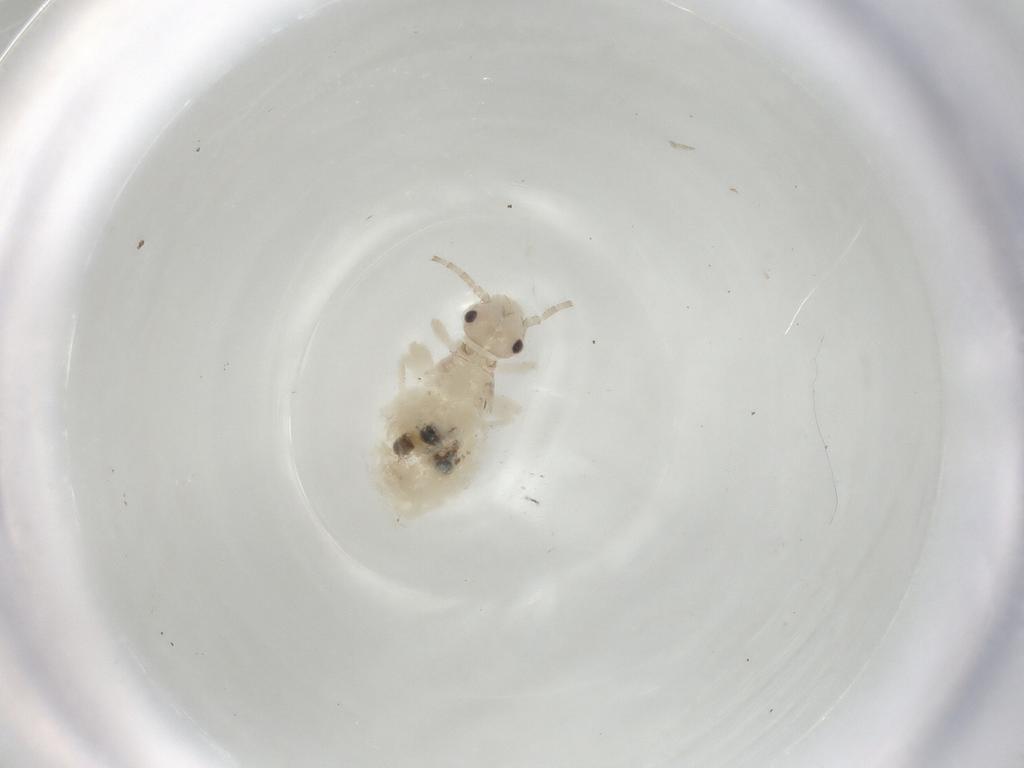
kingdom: Animalia
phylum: Arthropoda
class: Insecta
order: Psocodea
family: Amphipsocidae
